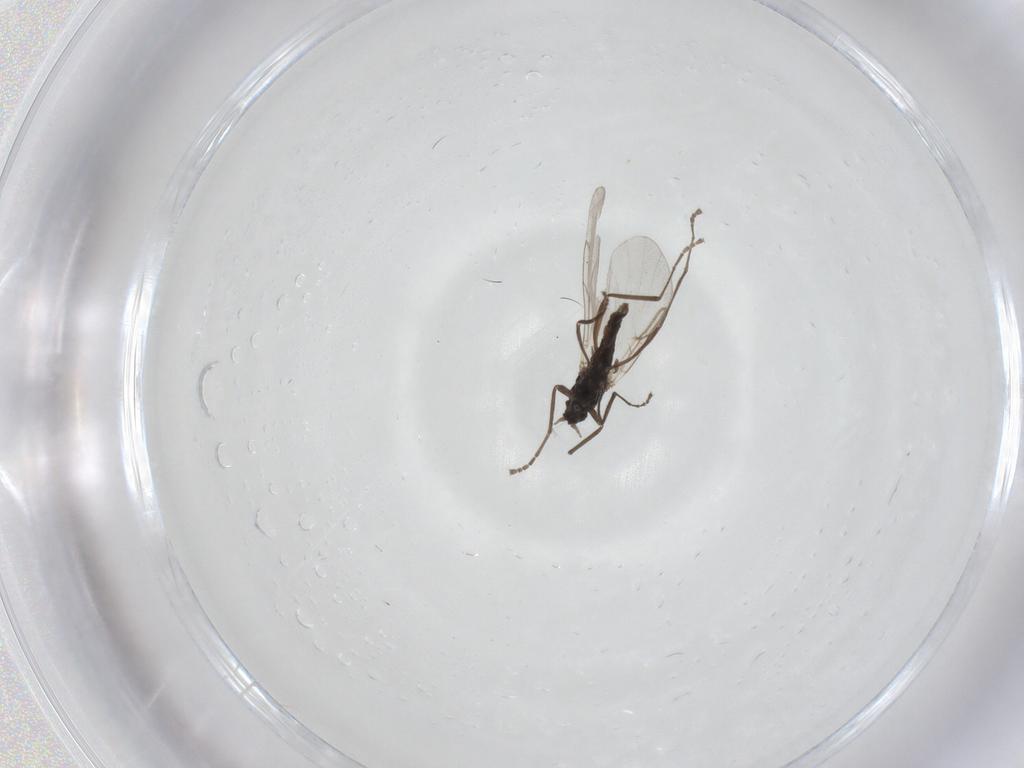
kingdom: Animalia
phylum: Arthropoda
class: Insecta
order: Diptera
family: Cecidomyiidae
